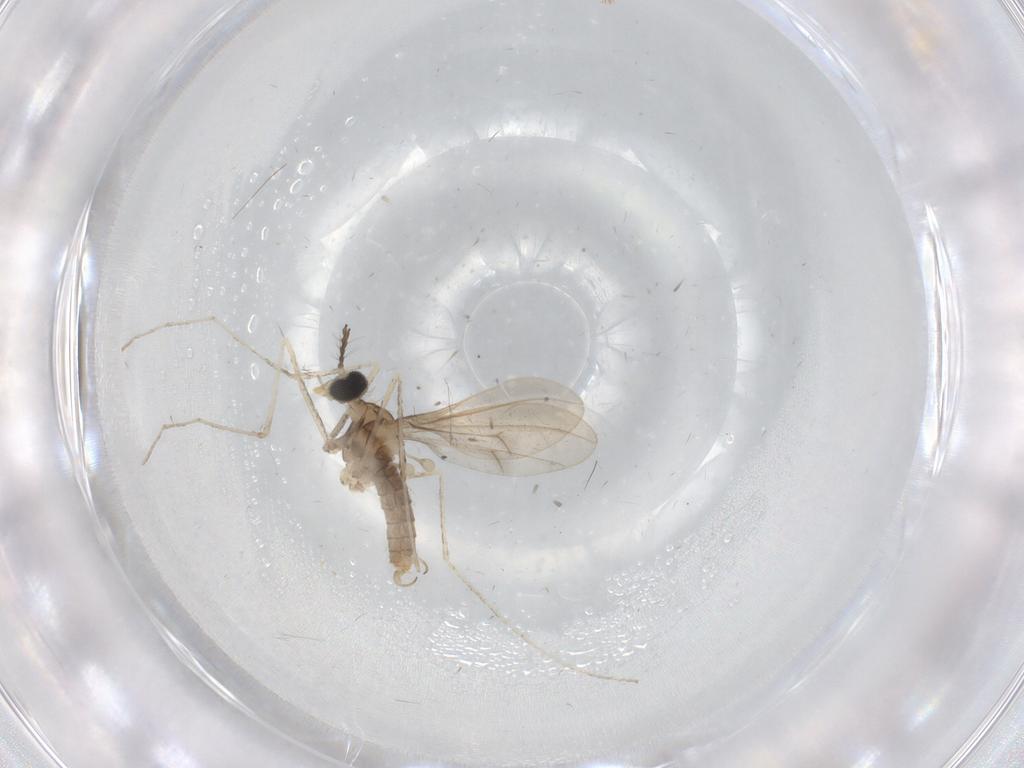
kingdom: Animalia
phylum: Arthropoda
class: Insecta
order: Diptera
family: Cecidomyiidae
